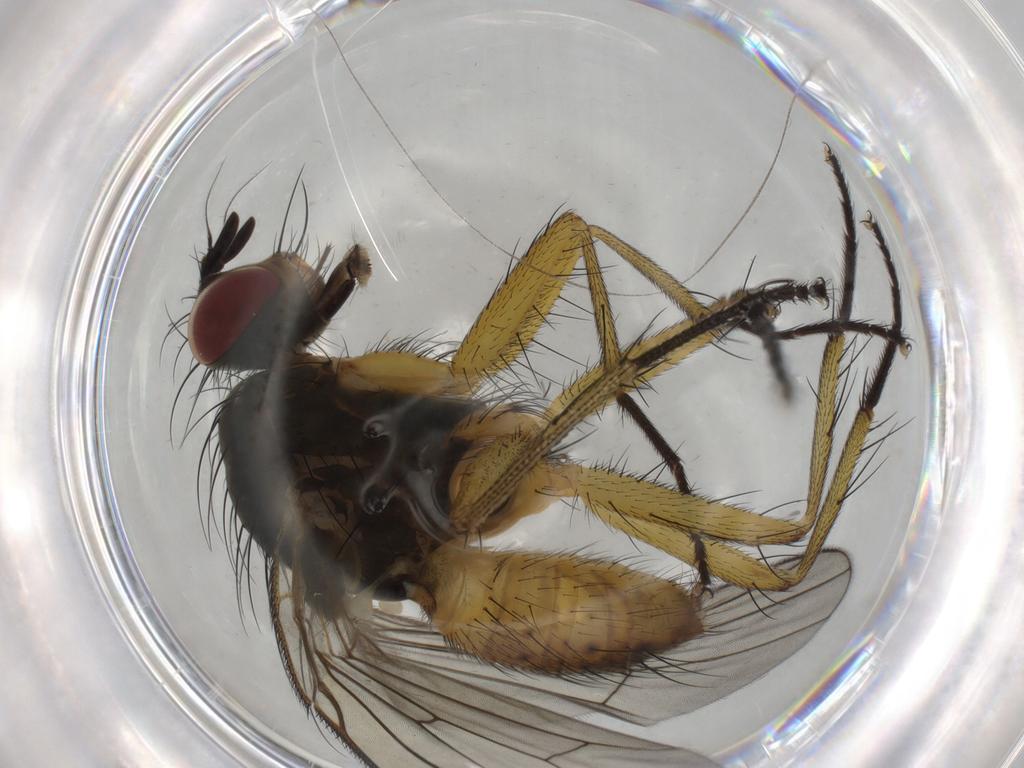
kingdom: Animalia
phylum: Arthropoda
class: Insecta
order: Diptera
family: Muscidae
